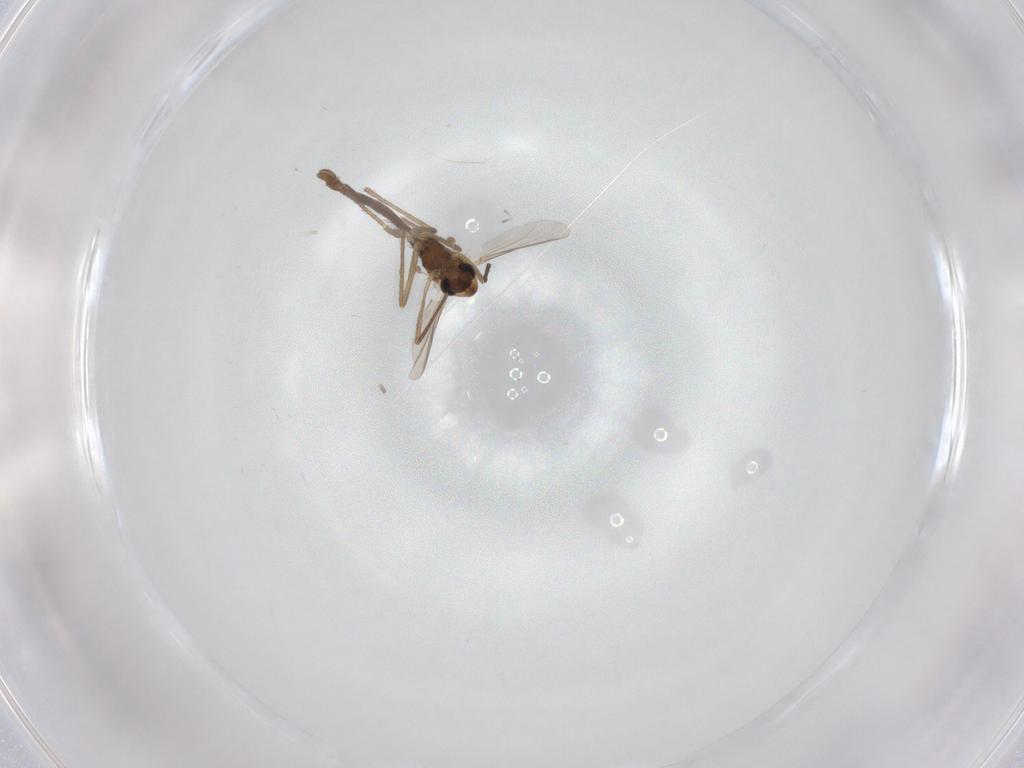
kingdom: Animalia
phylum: Arthropoda
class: Insecta
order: Diptera
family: Chironomidae
